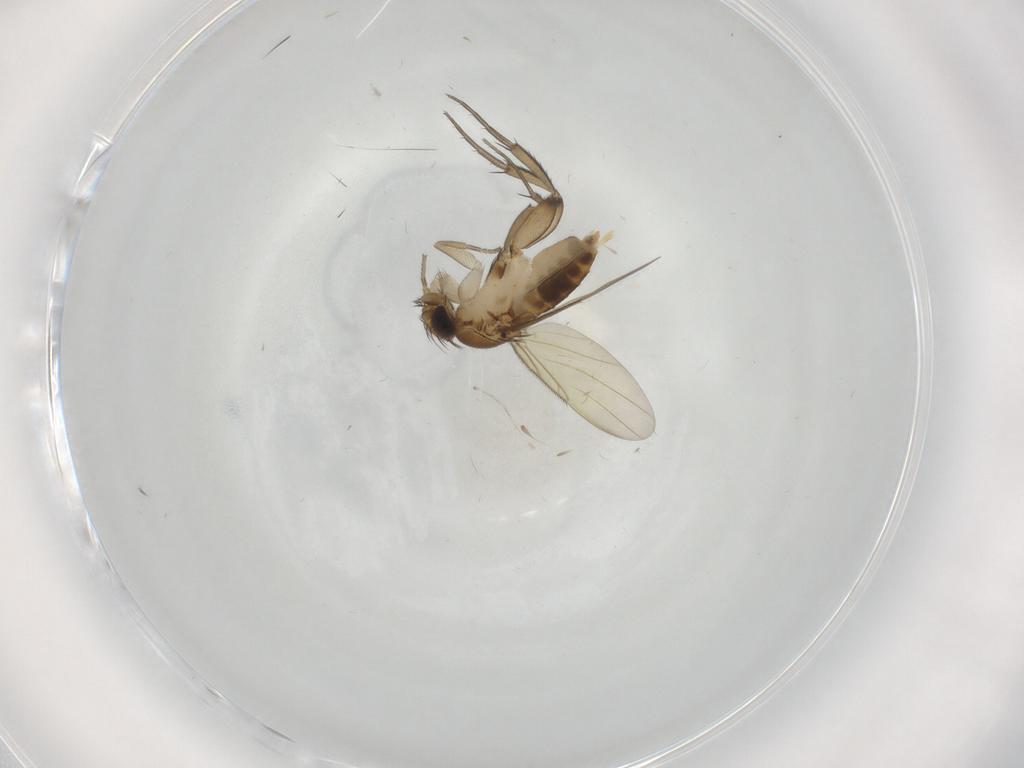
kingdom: Animalia
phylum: Arthropoda
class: Insecta
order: Diptera
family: Phoridae
